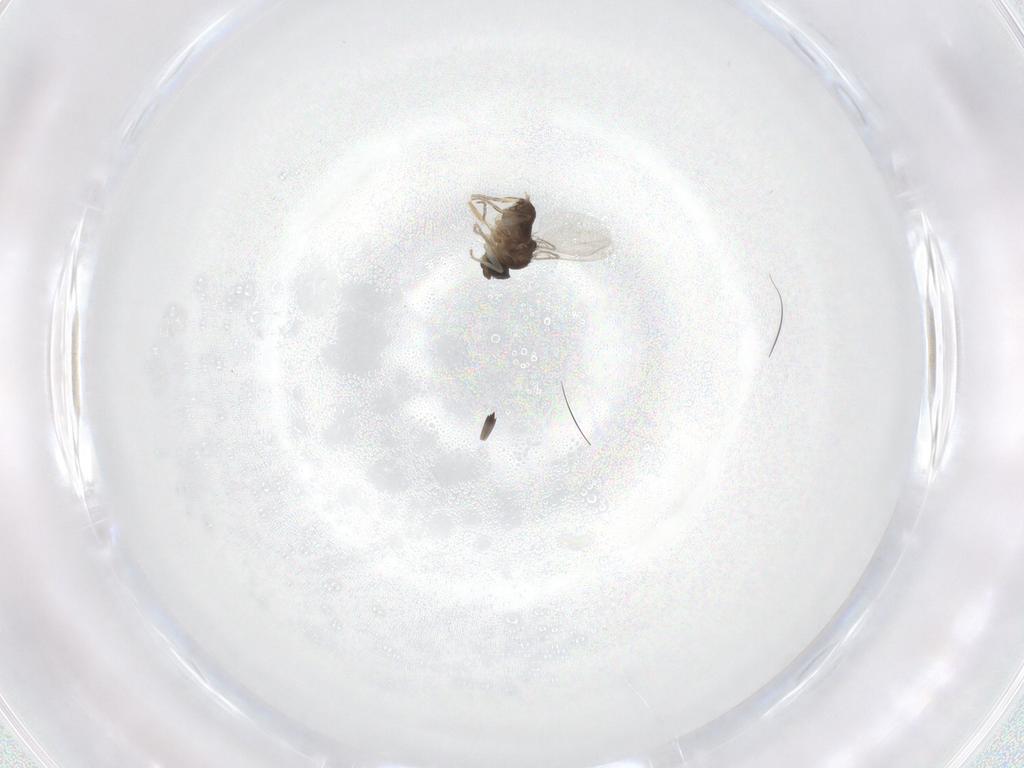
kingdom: Animalia
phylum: Arthropoda
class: Insecta
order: Diptera
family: Phoridae
